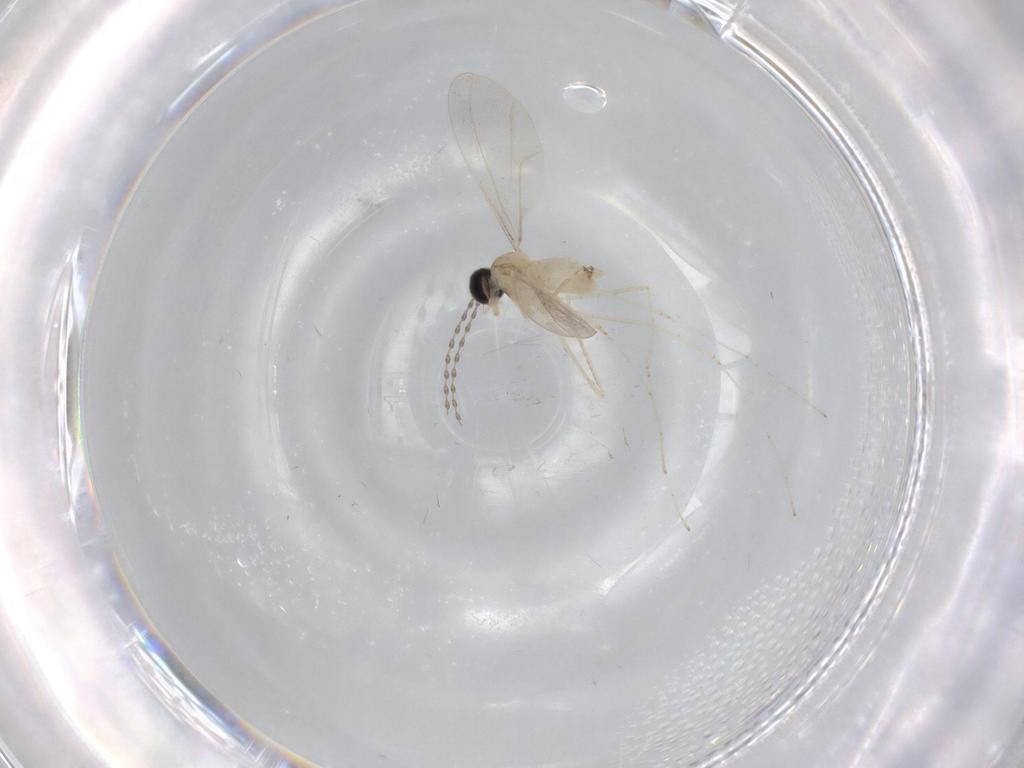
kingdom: Animalia
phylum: Arthropoda
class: Insecta
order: Diptera
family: Cecidomyiidae
